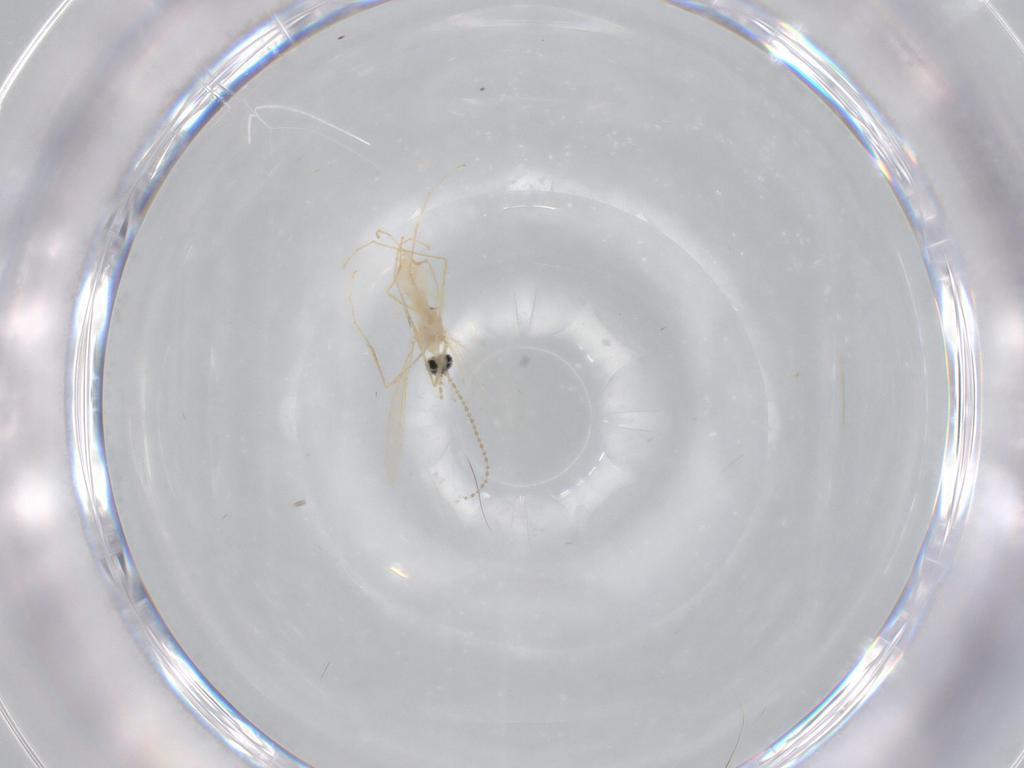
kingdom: Animalia
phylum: Arthropoda
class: Insecta
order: Diptera
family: Cecidomyiidae
